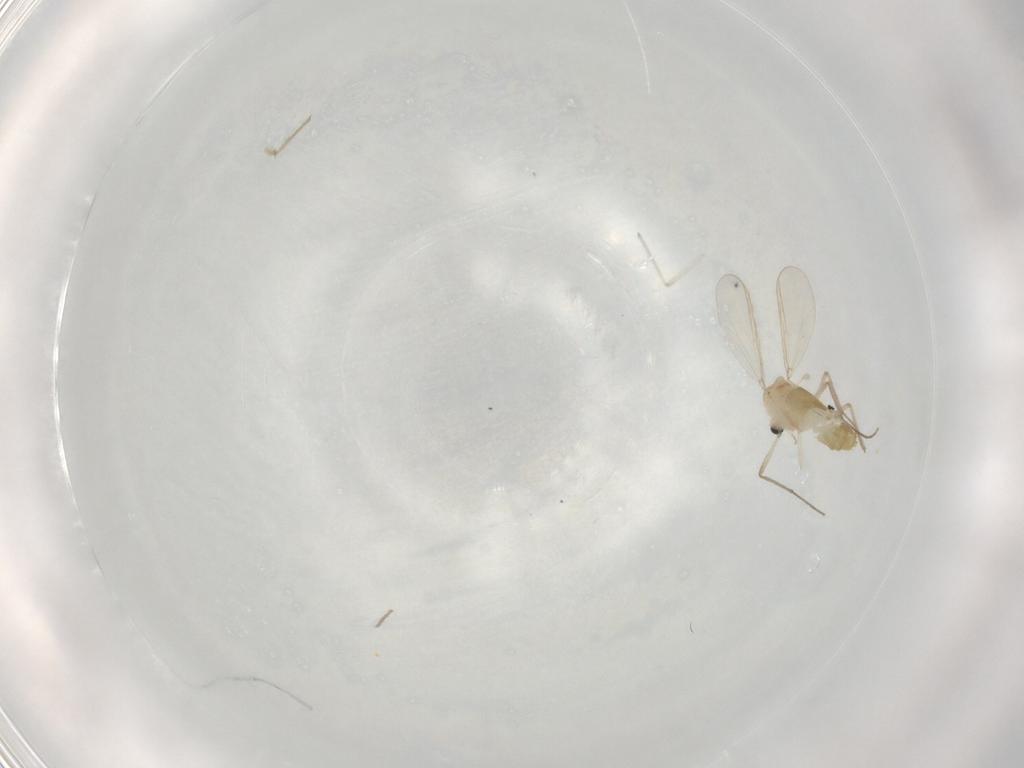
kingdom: Animalia
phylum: Arthropoda
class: Insecta
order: Diptera
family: Chironomidae
